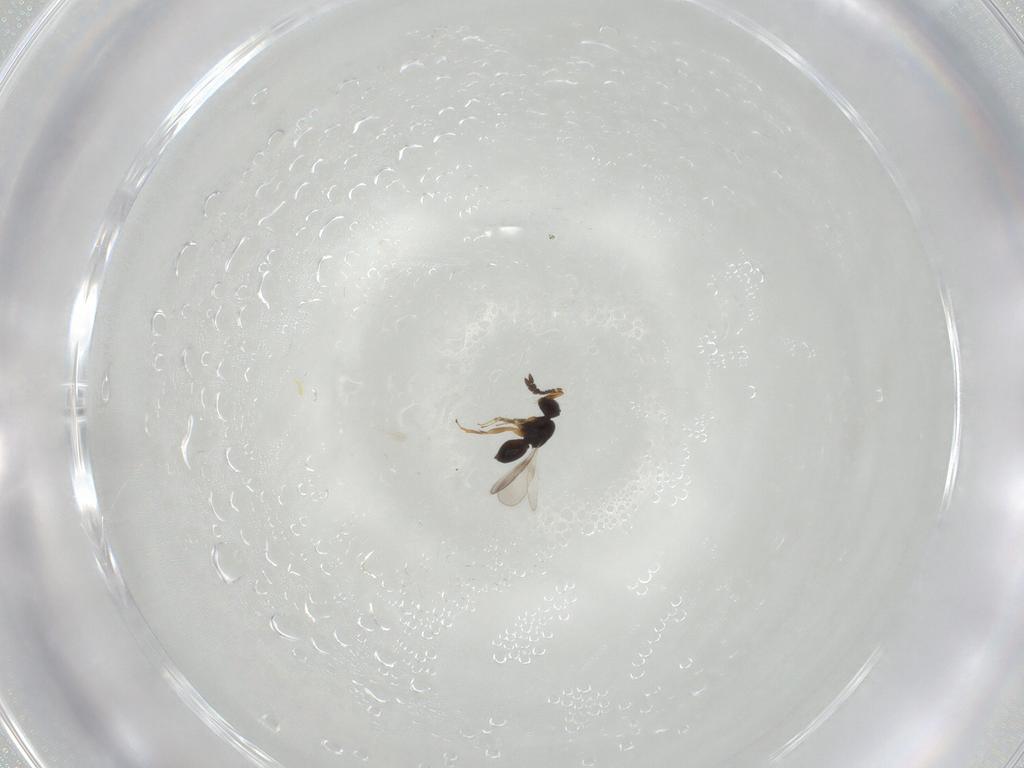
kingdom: Animalia
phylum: Arthropoda
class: Insecta
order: Hymenoptera
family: Ceraphronidae
